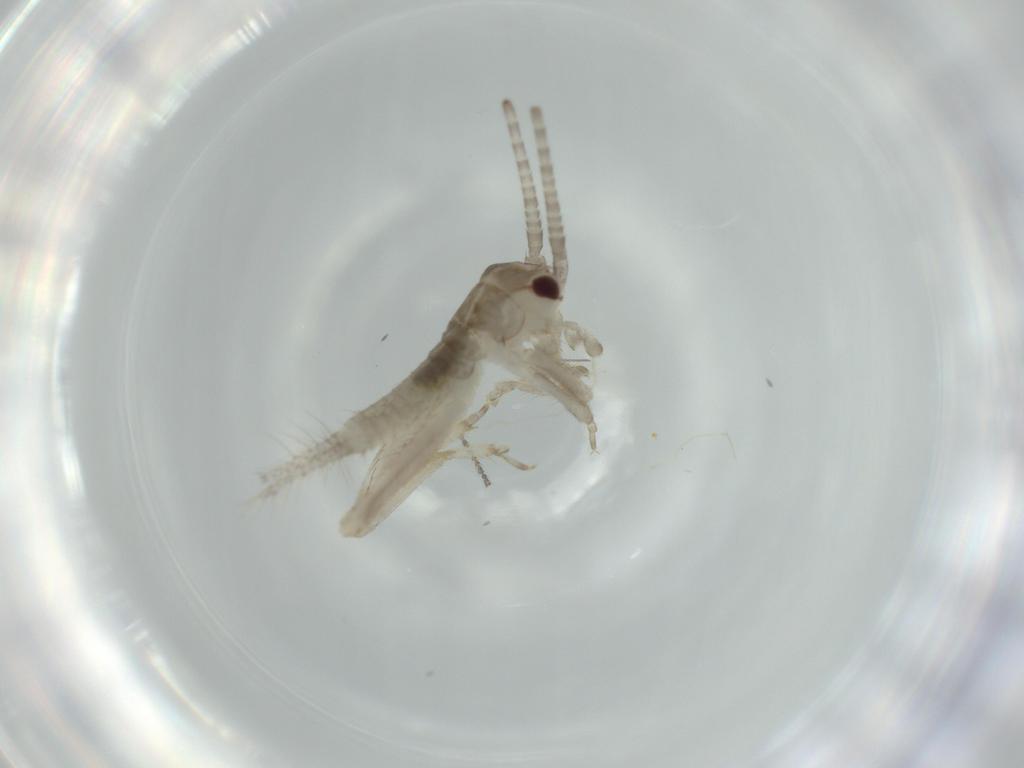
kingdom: Animalia
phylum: Arthropoda
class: Insecta
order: Orthoptera
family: Gryllidae
